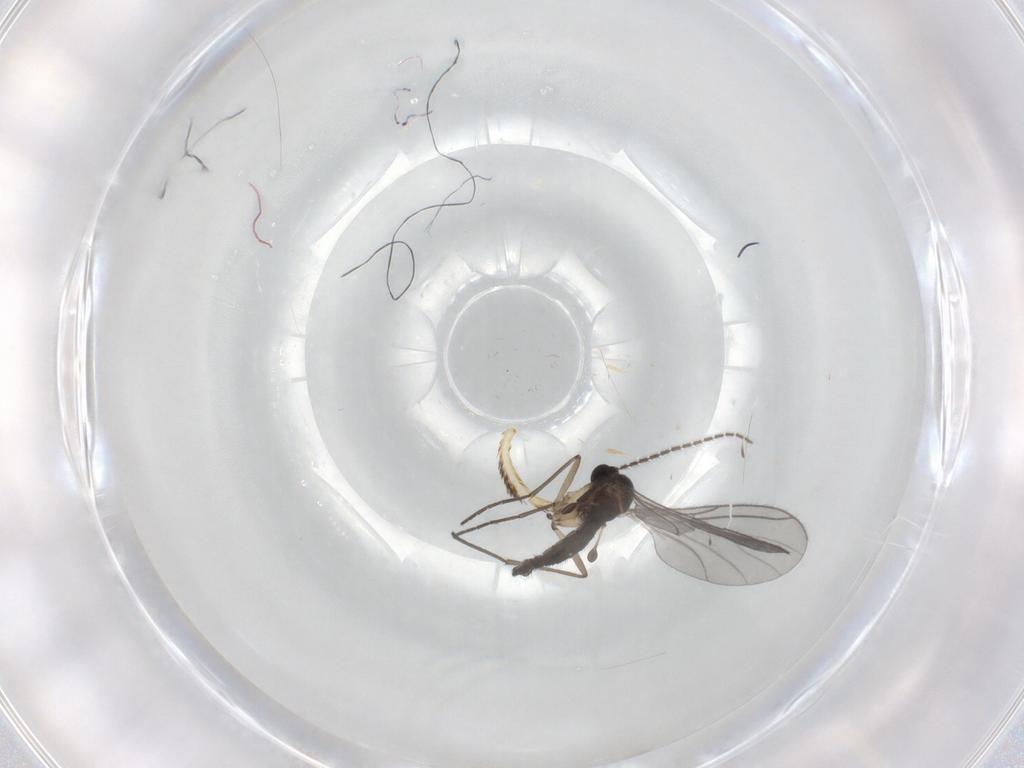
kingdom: Animalia
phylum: Arthropoda
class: Insecta
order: Diptera
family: Sciaridae
